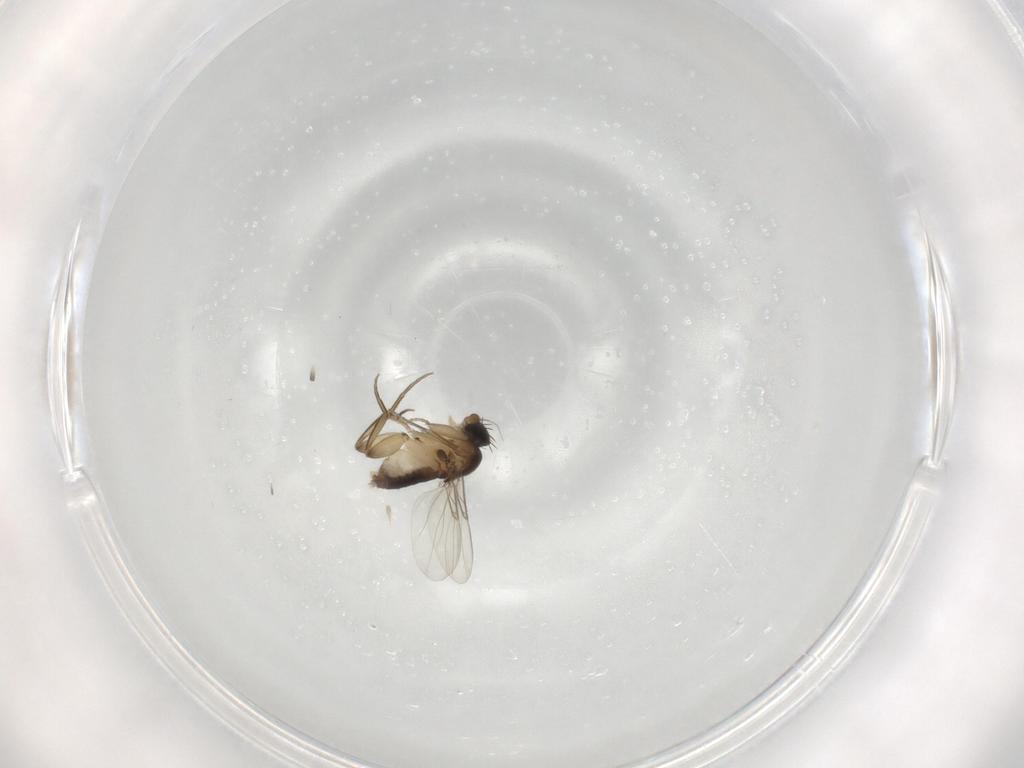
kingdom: Animalia
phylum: Arthropoda
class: Insecta
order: Diptera
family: Phoridae
